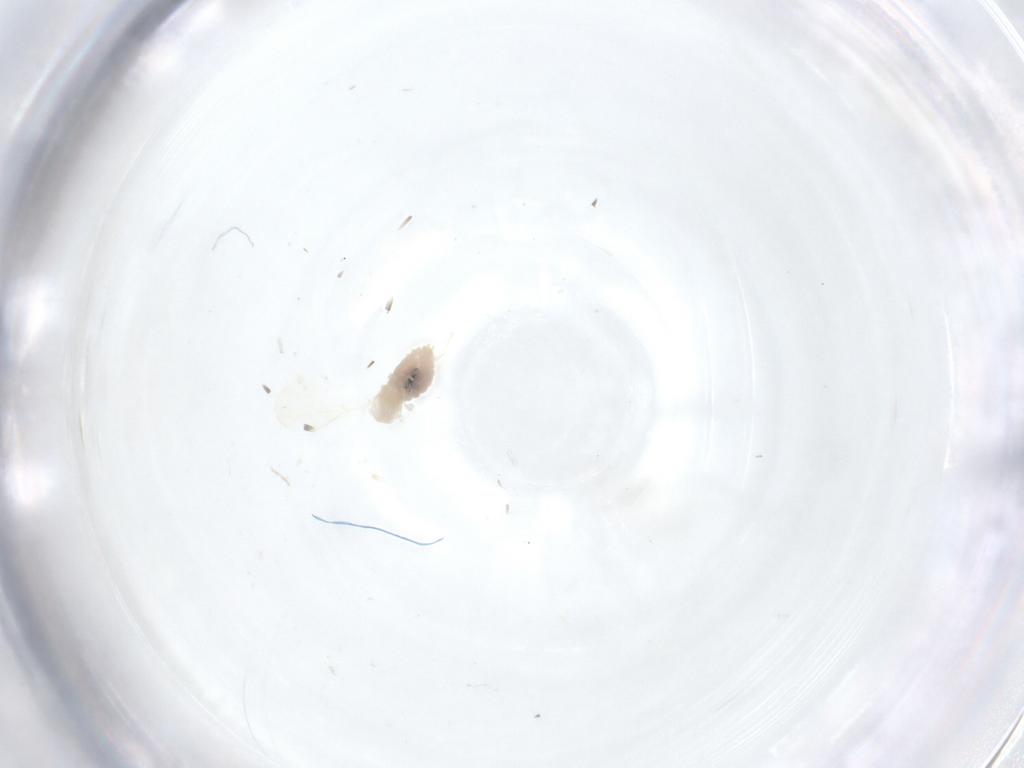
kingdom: Animalia
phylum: Arthropoda
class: Insecta
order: Diptera
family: Cecidomyiidae
